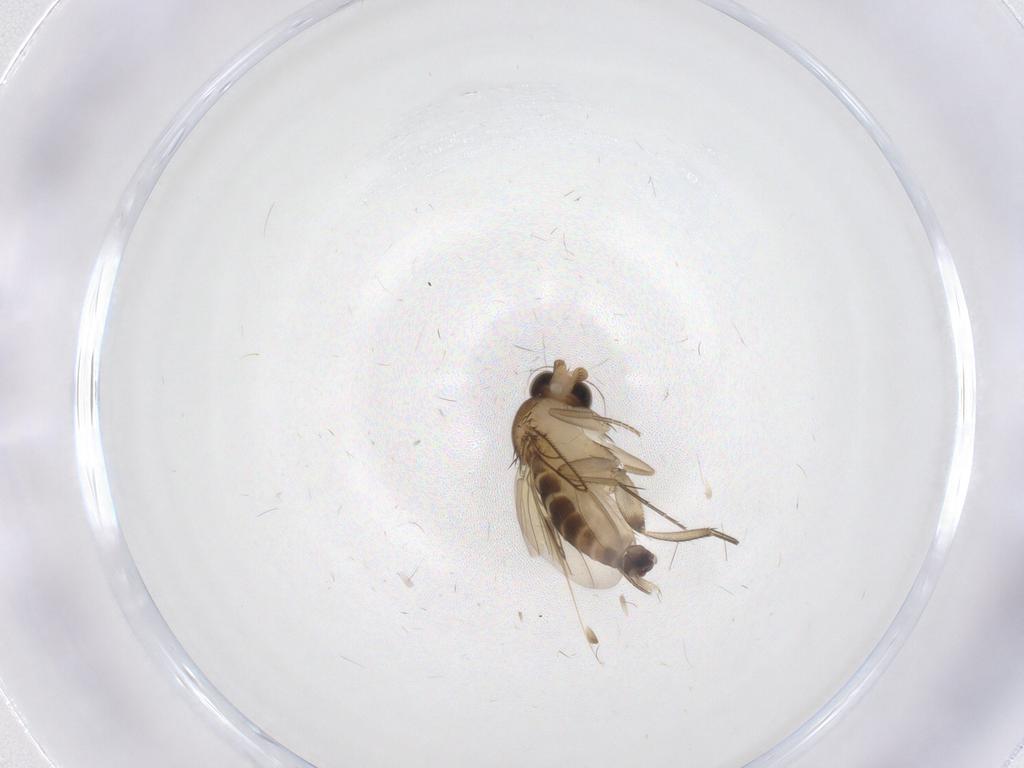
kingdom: Animalia
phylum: Arthropoda
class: Insecta
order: Diptera
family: Phoridae
